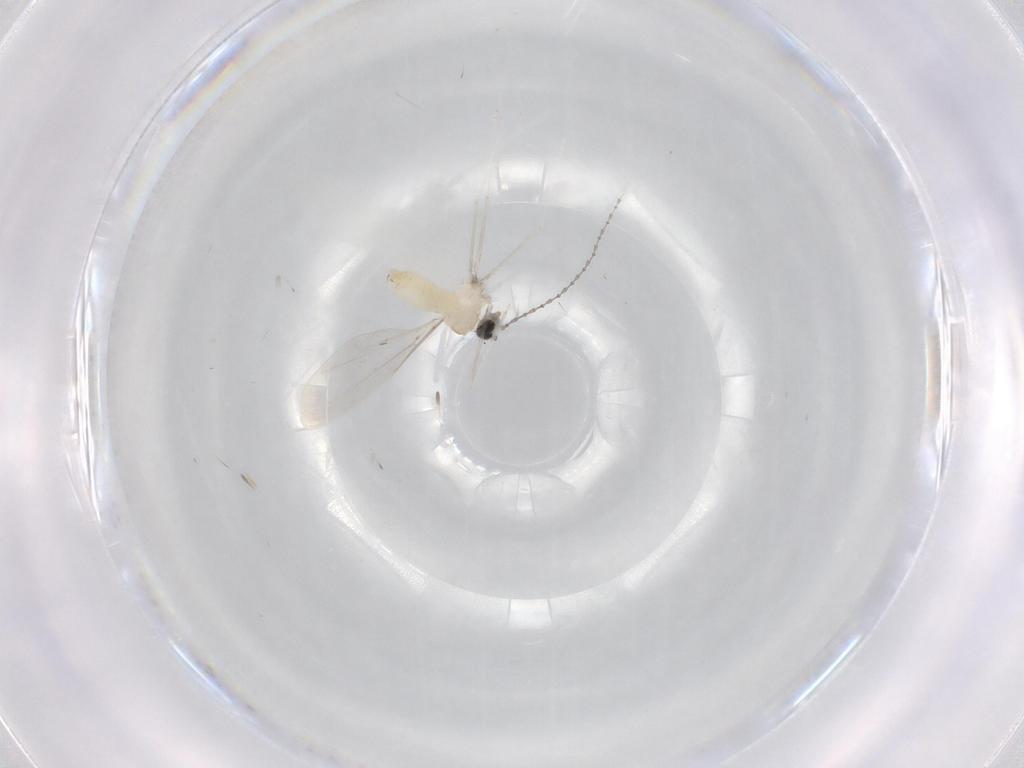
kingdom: Animalia
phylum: Arthropoda
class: Insecta
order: Diptera
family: Cecidomyiidae
